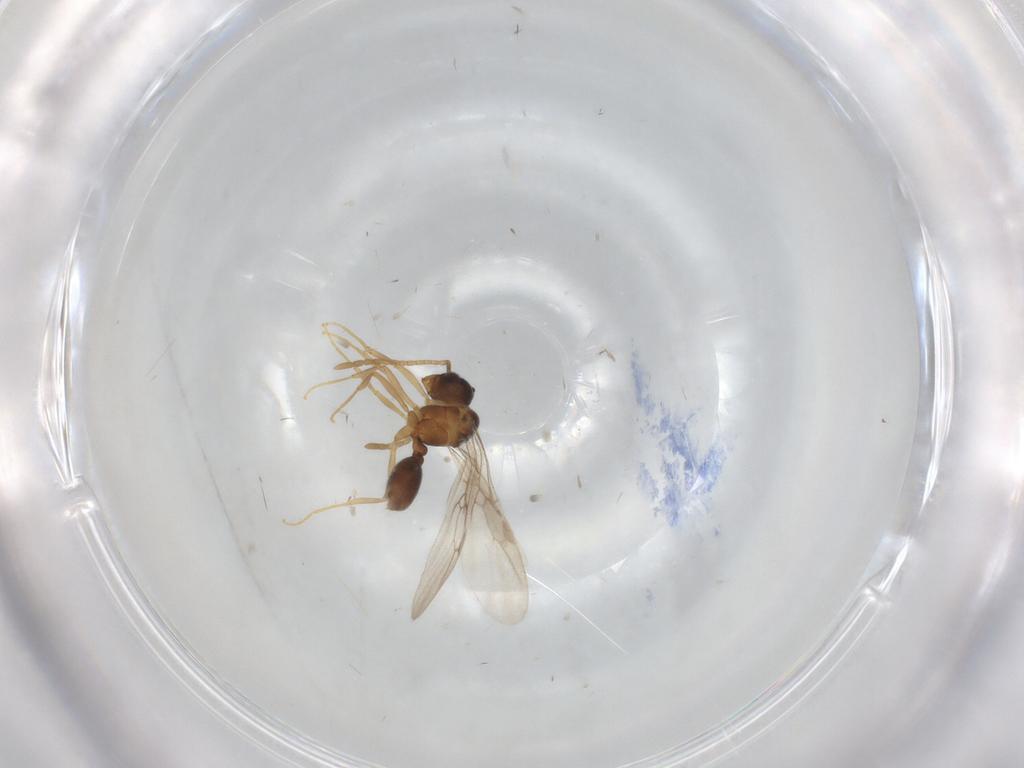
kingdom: Animalia
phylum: Arthropoda
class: Insecta
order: Hymenoptera
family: Formicidae
